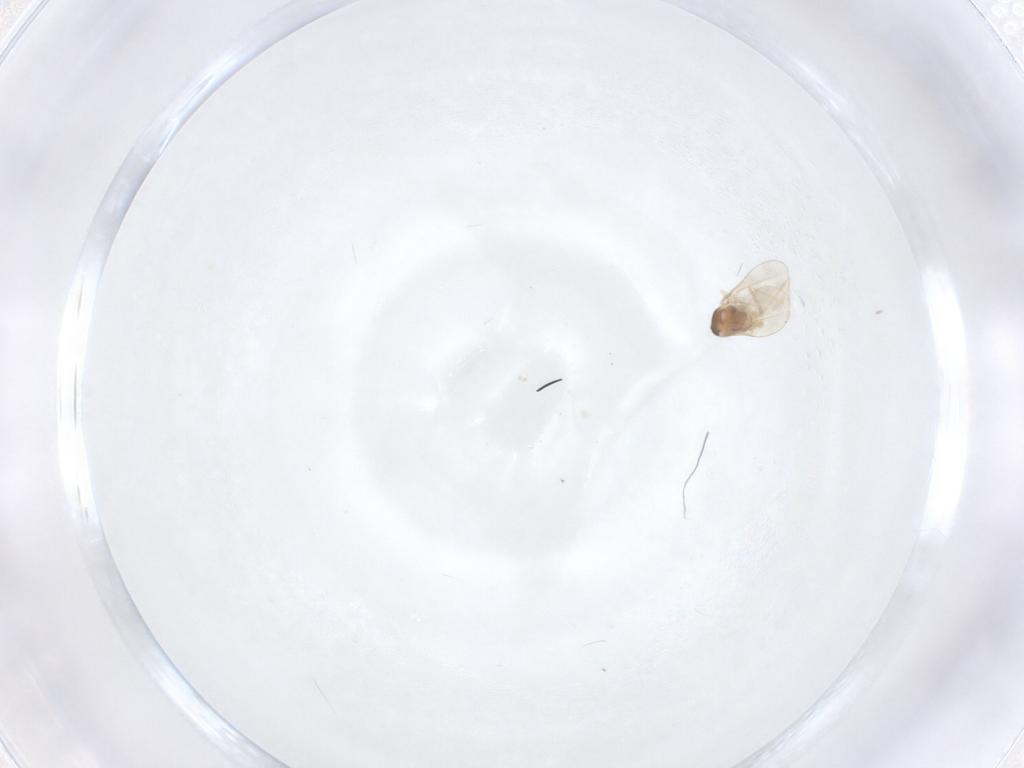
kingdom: Animalia
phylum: Arthropoda
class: Insecta
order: Diptera
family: Cecidomyiidae
